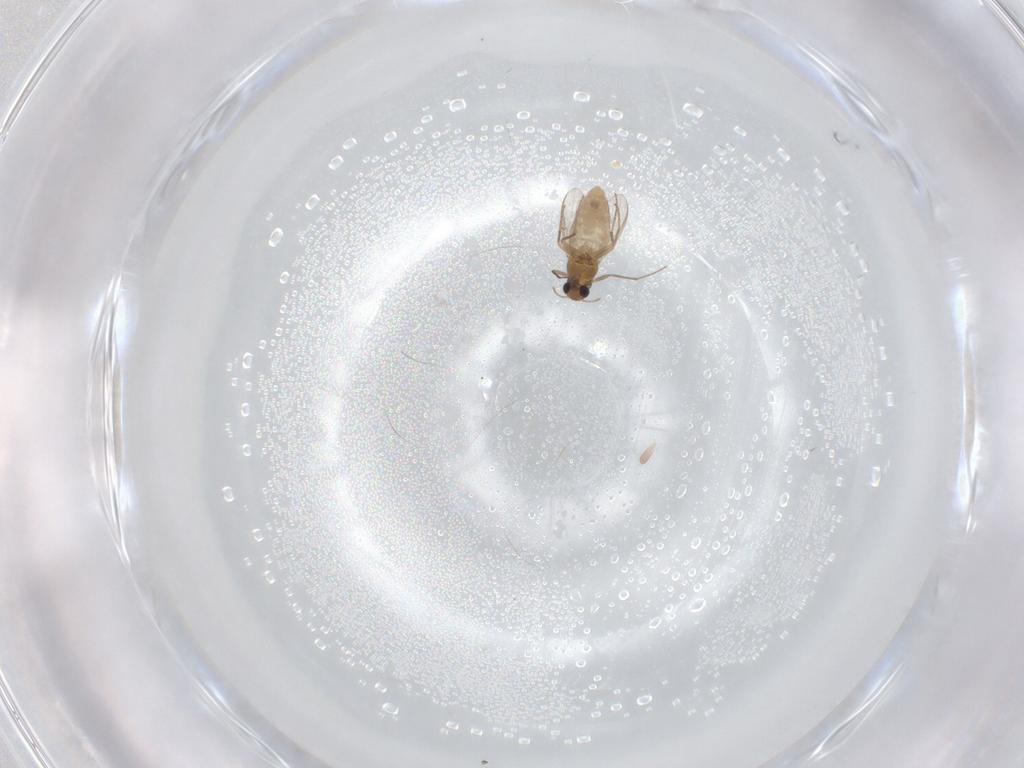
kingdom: Animalia
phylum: Arthropoda
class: Insecta
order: Diptera
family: Chironomidae
